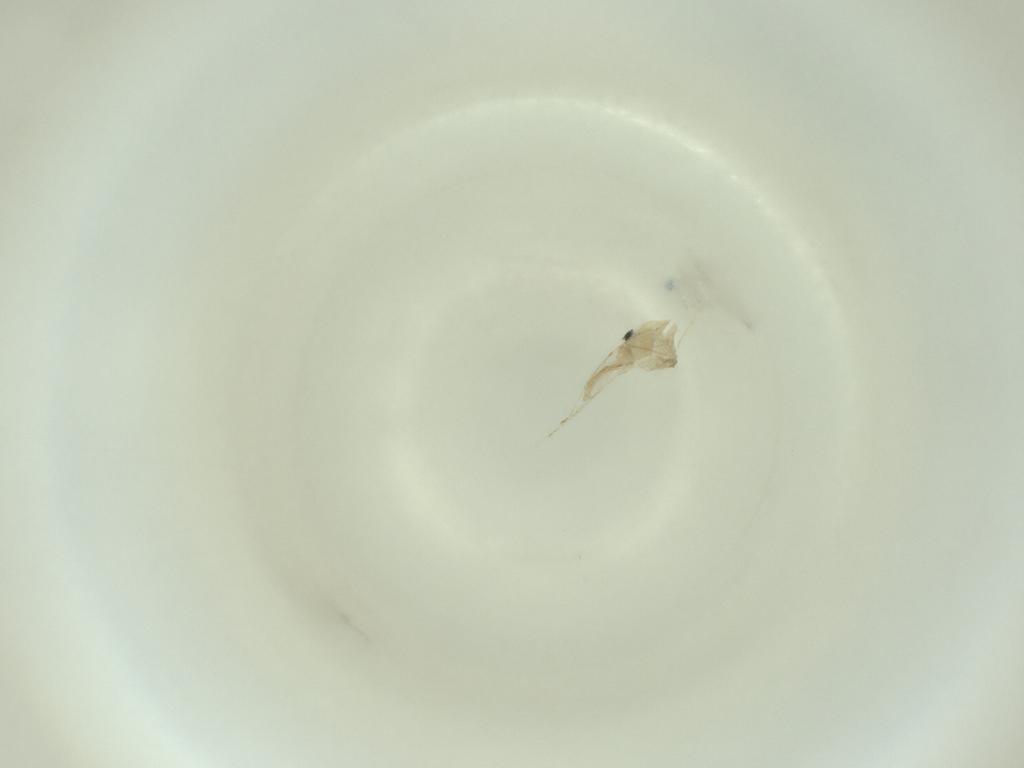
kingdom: Animalia
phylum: Arthropoda
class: Insecta
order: Diptera
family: Cecidomyiidae
